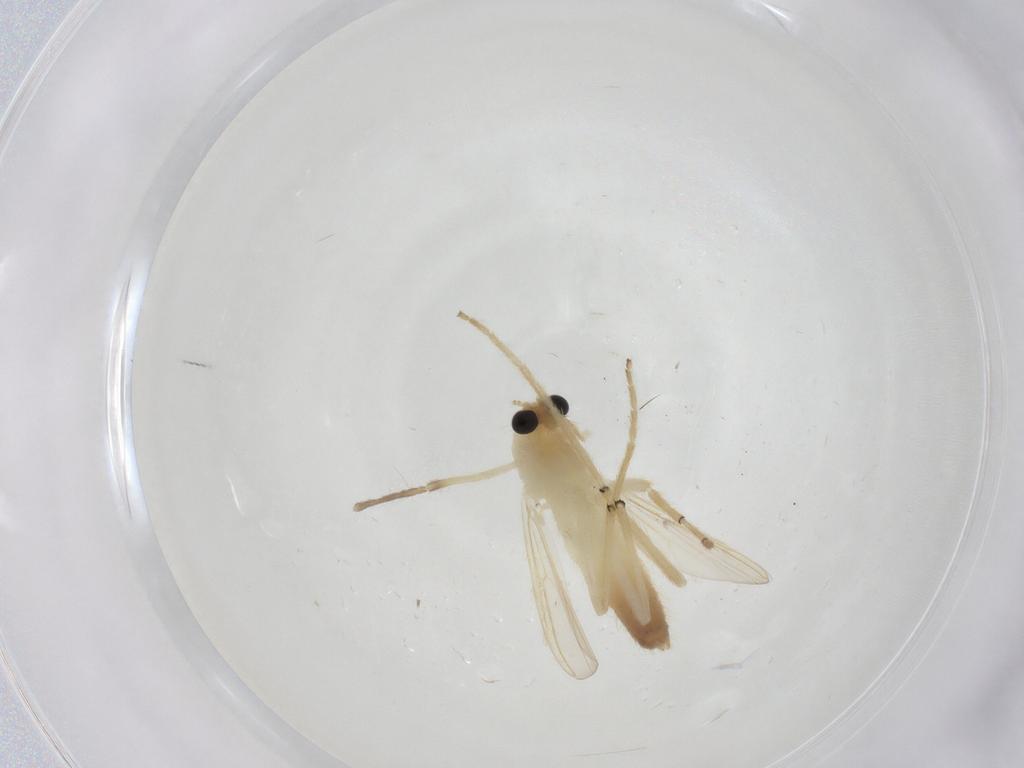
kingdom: Animalia
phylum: Arthropoda
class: Insecta
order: Diptera
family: Chironomidae
